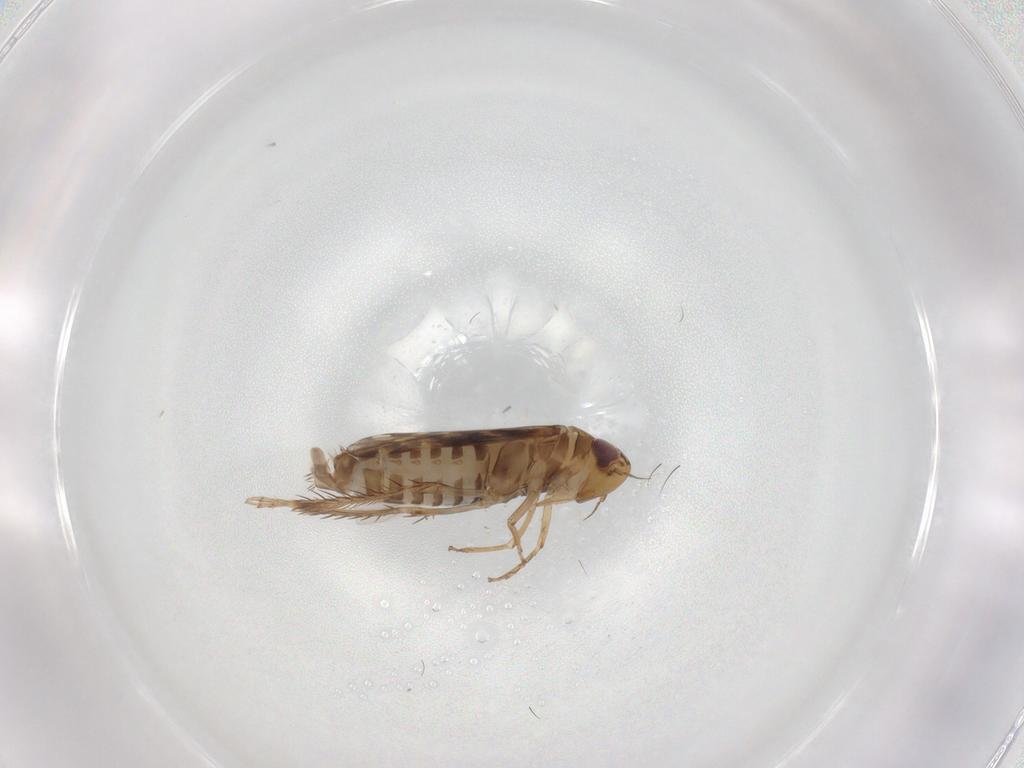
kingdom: Animalia
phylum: Arthropoda
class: Insecta
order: Hemiptera
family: Cicadellidae
